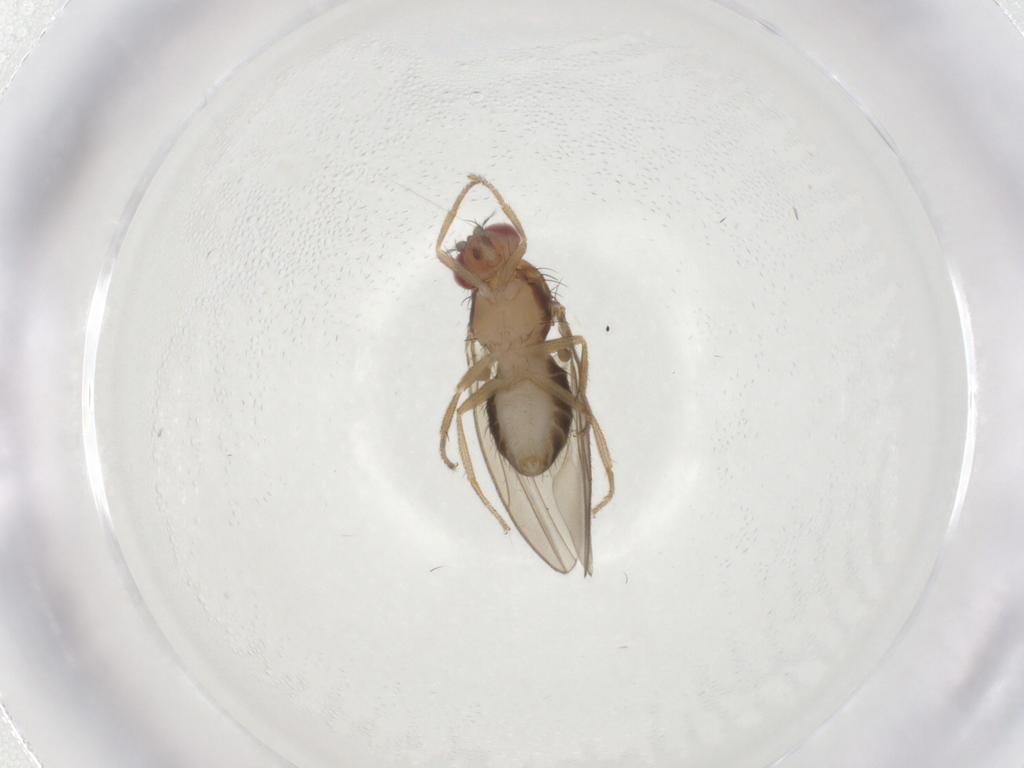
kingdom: Animalia
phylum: Arthropoda
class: Insecta
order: Diptera
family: Drosophilidae
